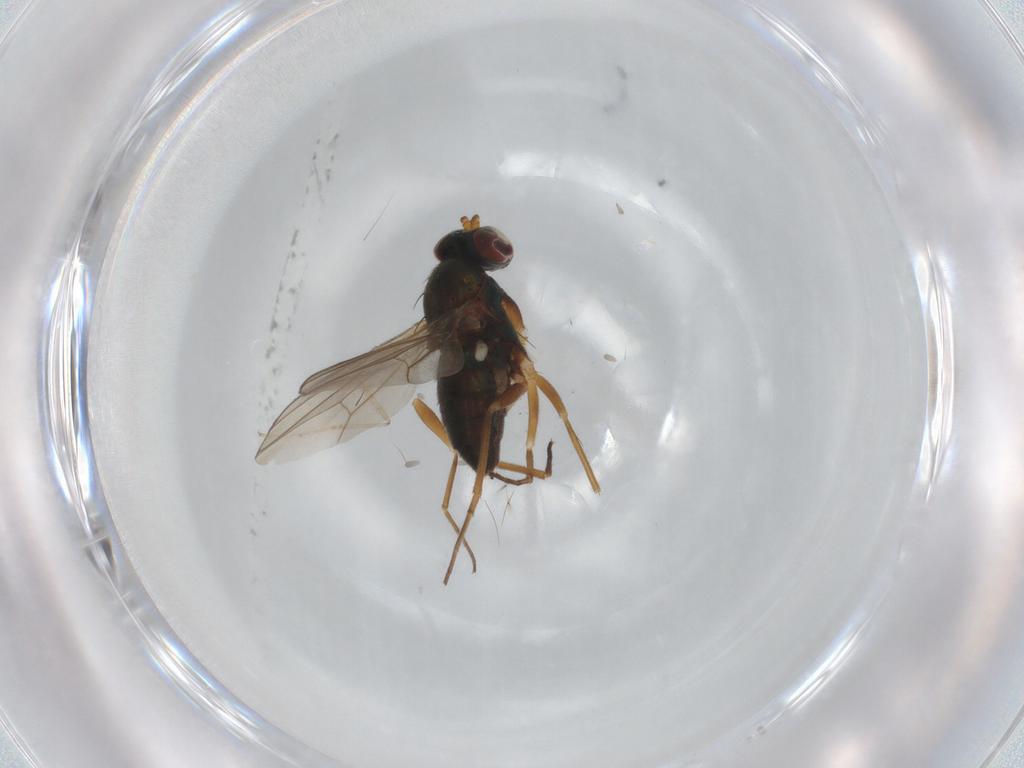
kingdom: Animalia
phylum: Arthropoda
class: Insecta
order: Diptera
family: Dolichopodidae
